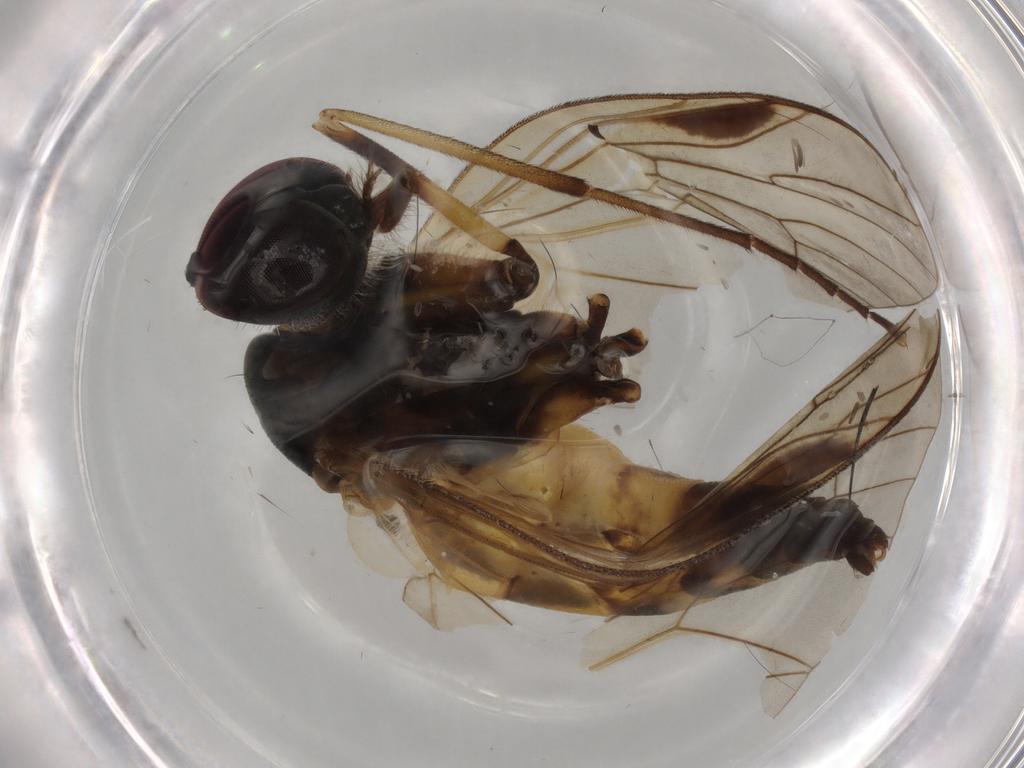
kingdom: Animalia
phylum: Arthropoda
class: Insecta
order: Diptera
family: Rhagionidae
